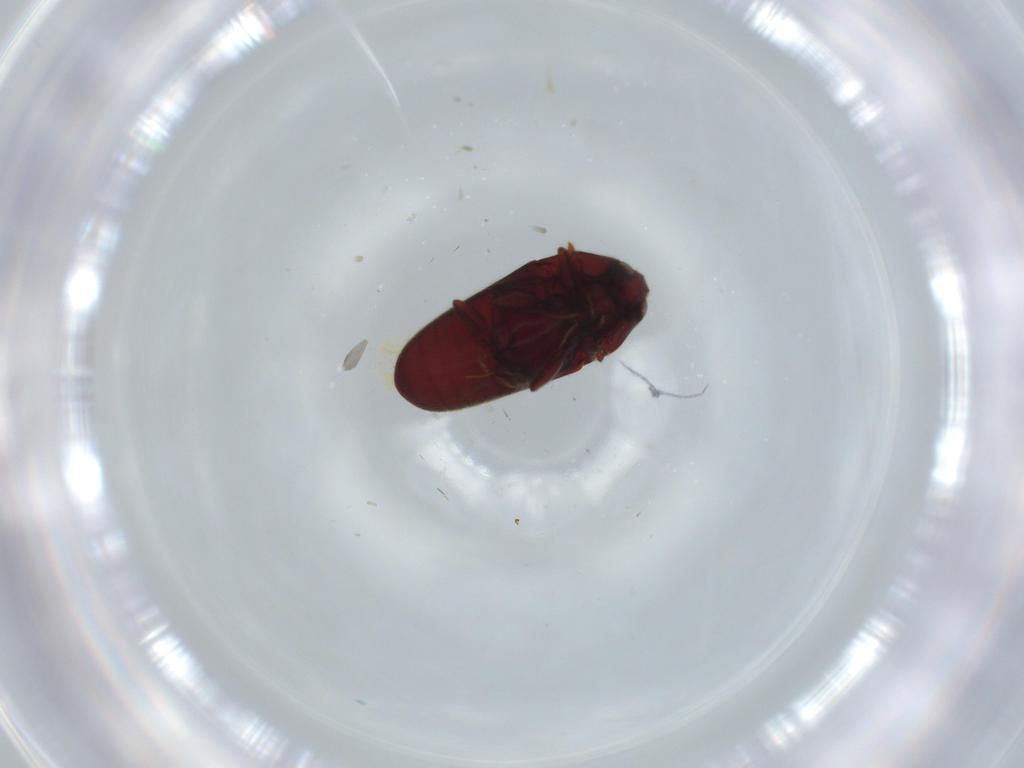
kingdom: Animalia
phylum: Arthropoda
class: Insecta
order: Coleoptera
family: Throscidae
